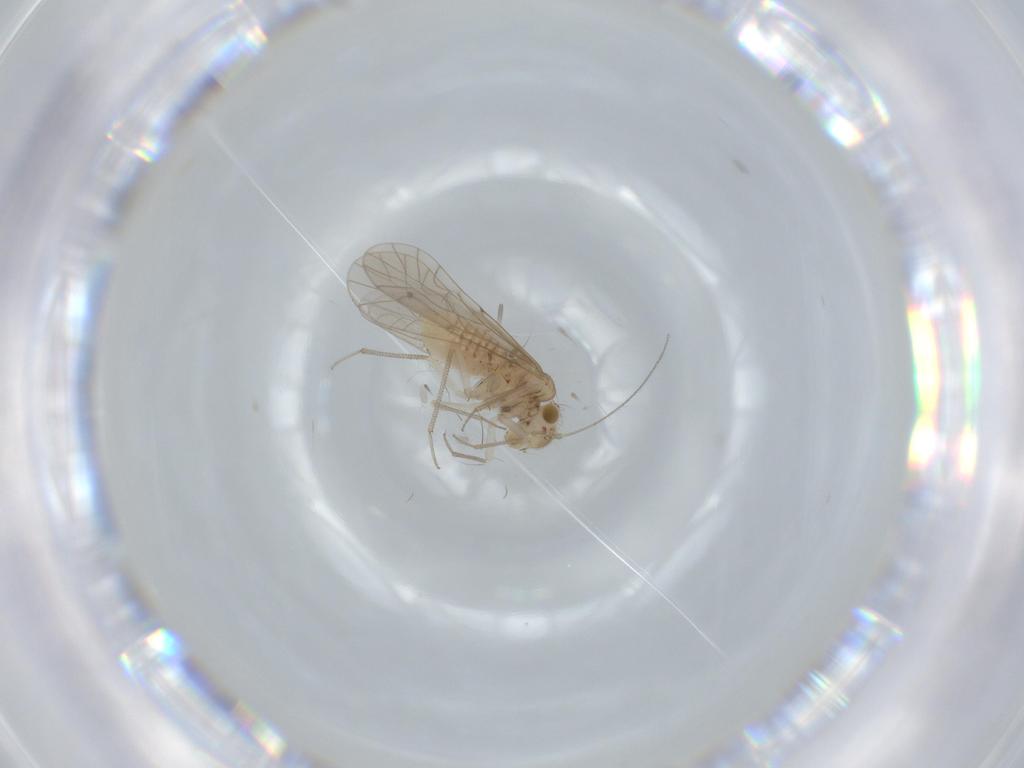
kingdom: Animalia
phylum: Arthropoda
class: Insecta
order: Psocodea
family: Lachesillidae
